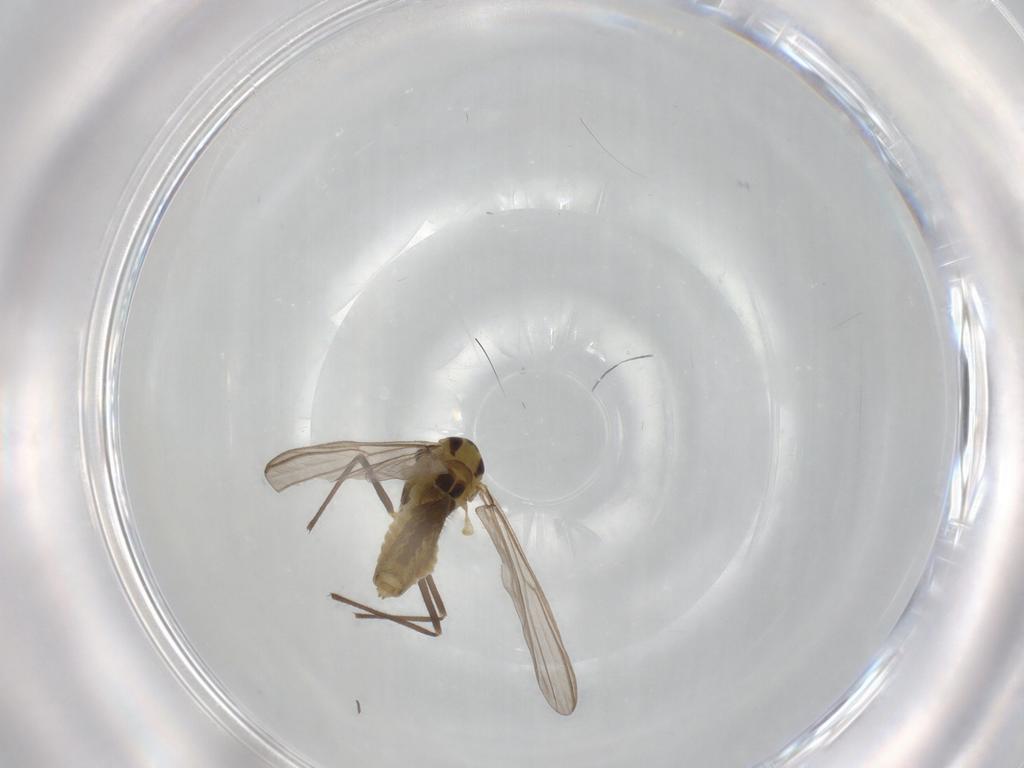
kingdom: Animalia
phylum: Arthropoda
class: Insecta
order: Diptera
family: Chironomidae
